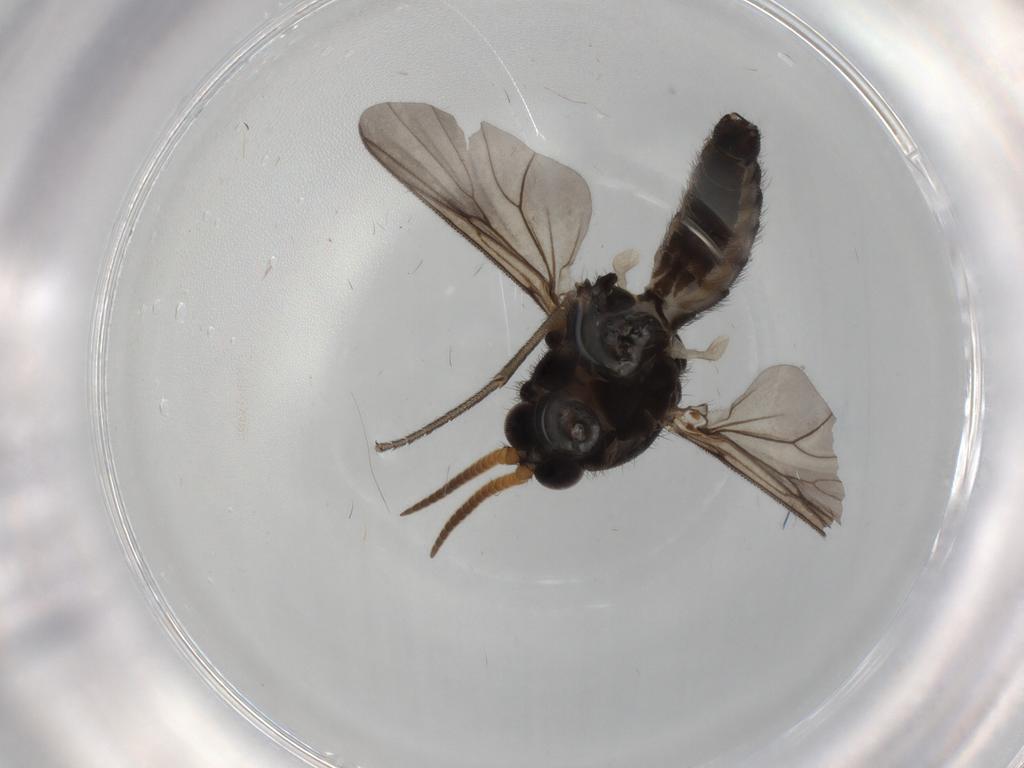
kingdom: Animalia
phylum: Arthropoda
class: Insecta
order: Diptera
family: Ceratopogonidae
